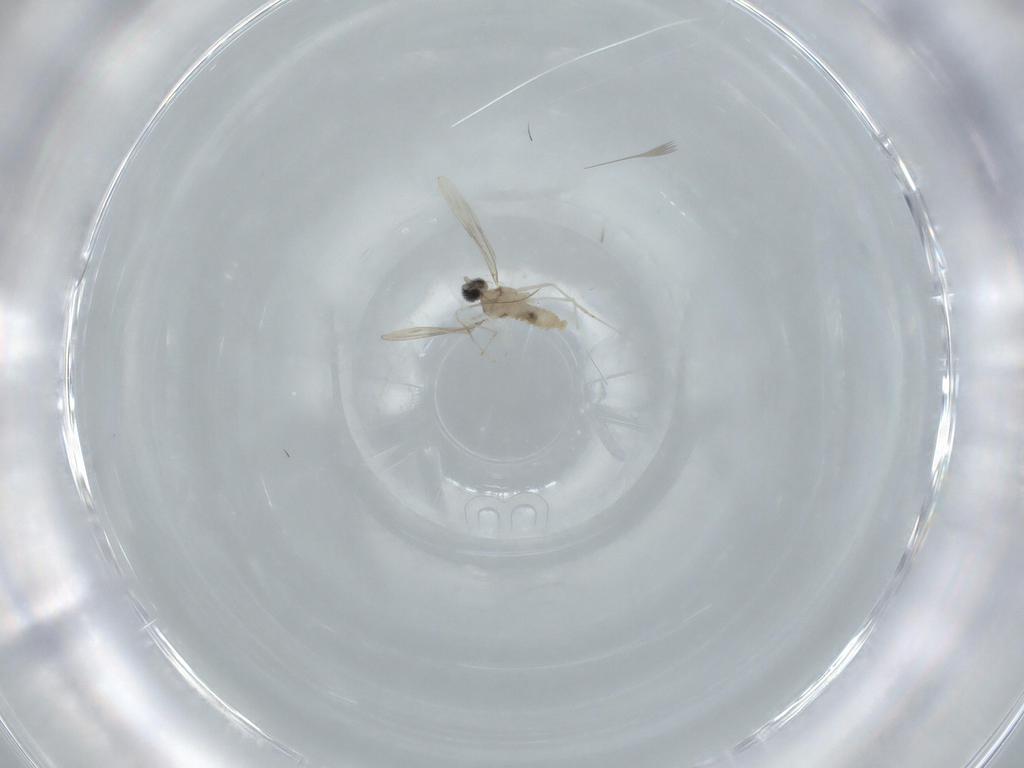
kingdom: Animalia
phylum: Arthropoda
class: Insecta
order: Diptera
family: Cecidomyiidae
